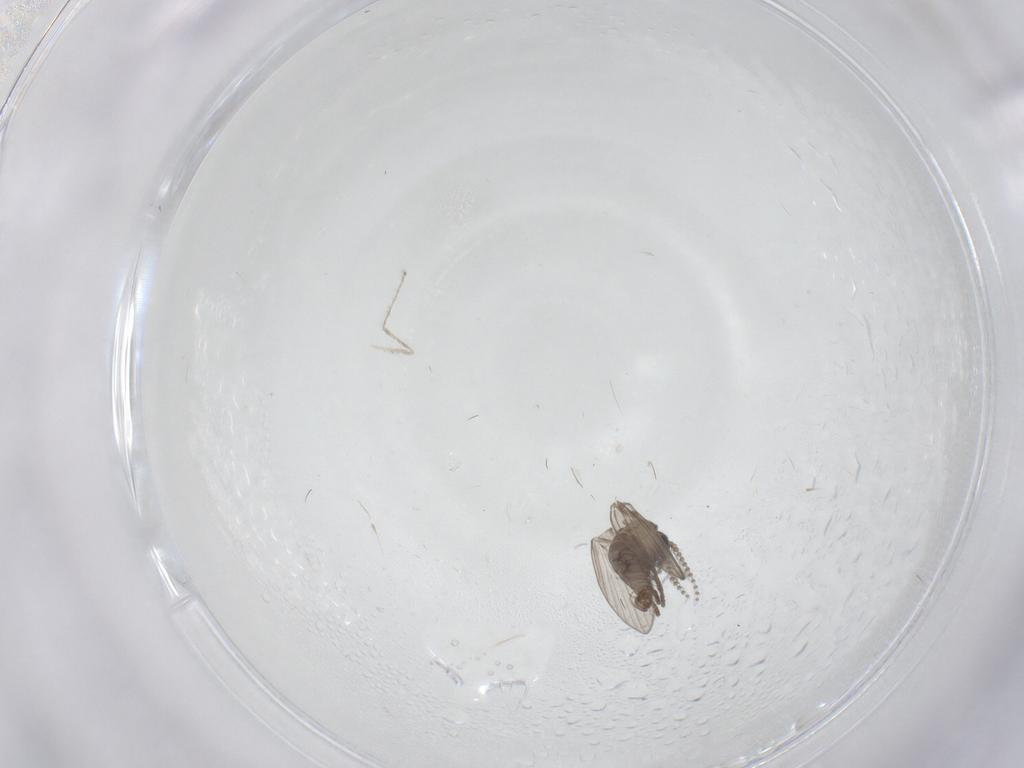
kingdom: Animalia
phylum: Arthropoda
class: Insecta
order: Diptera
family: Psychodidae
